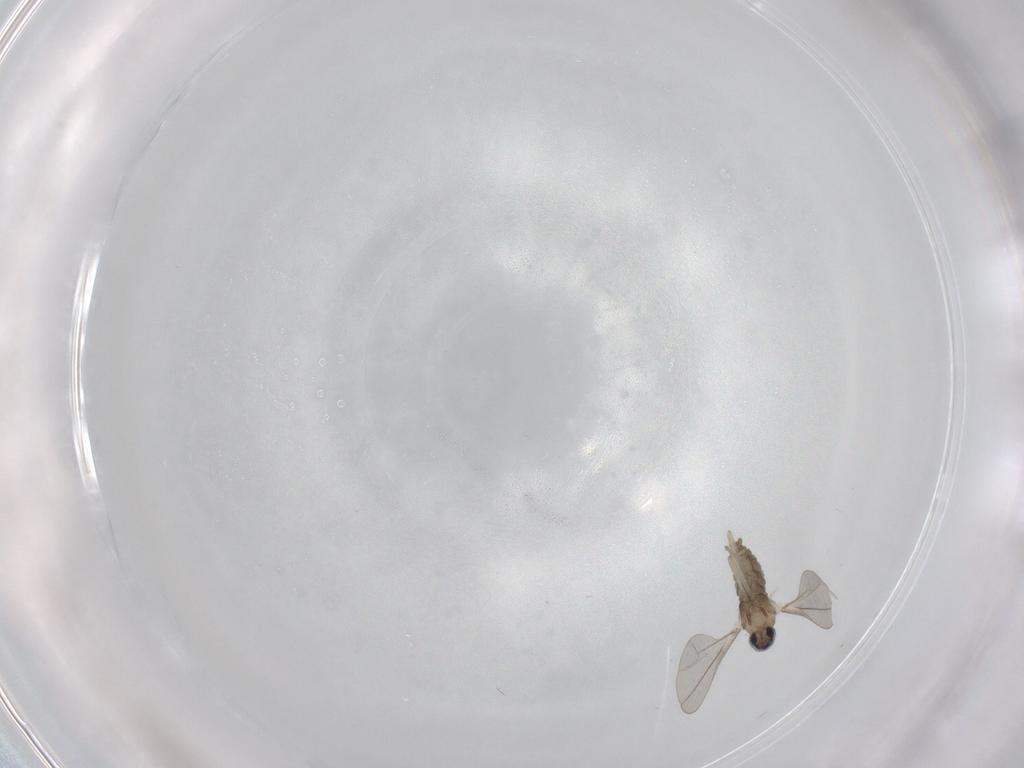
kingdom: Animalia
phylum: Arthropoda
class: Insecta
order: Diptera
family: Cecidomyiidae
